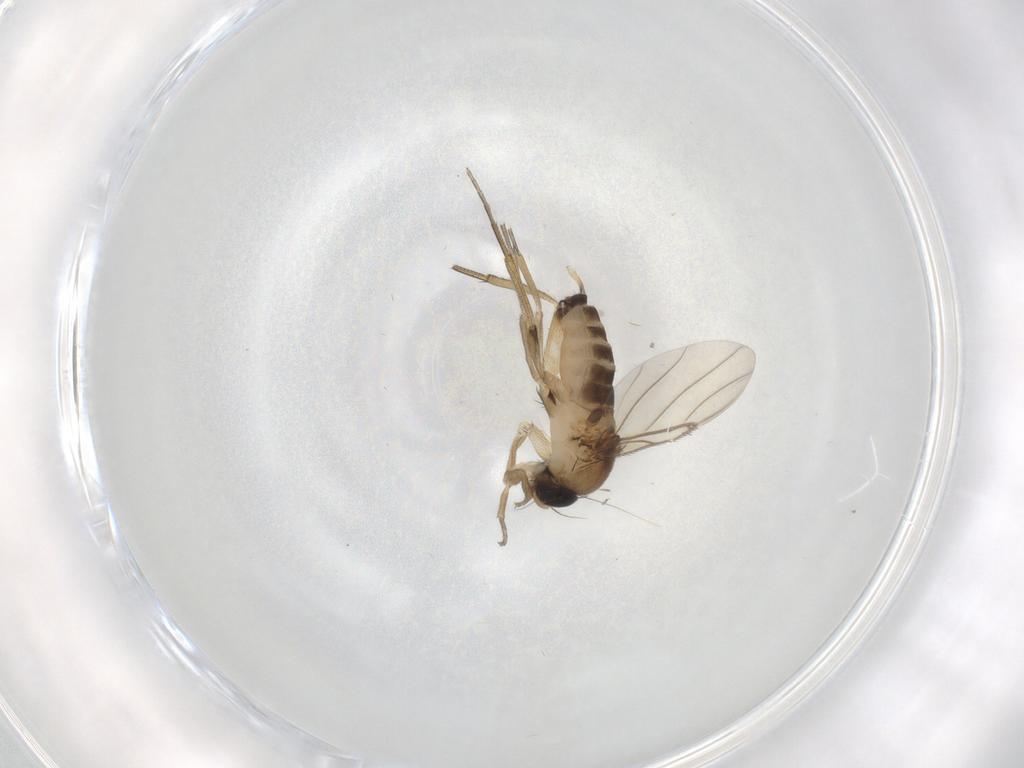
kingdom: Animalia
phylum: Arthropoda
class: Insecta
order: Diptera
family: Phoridae
